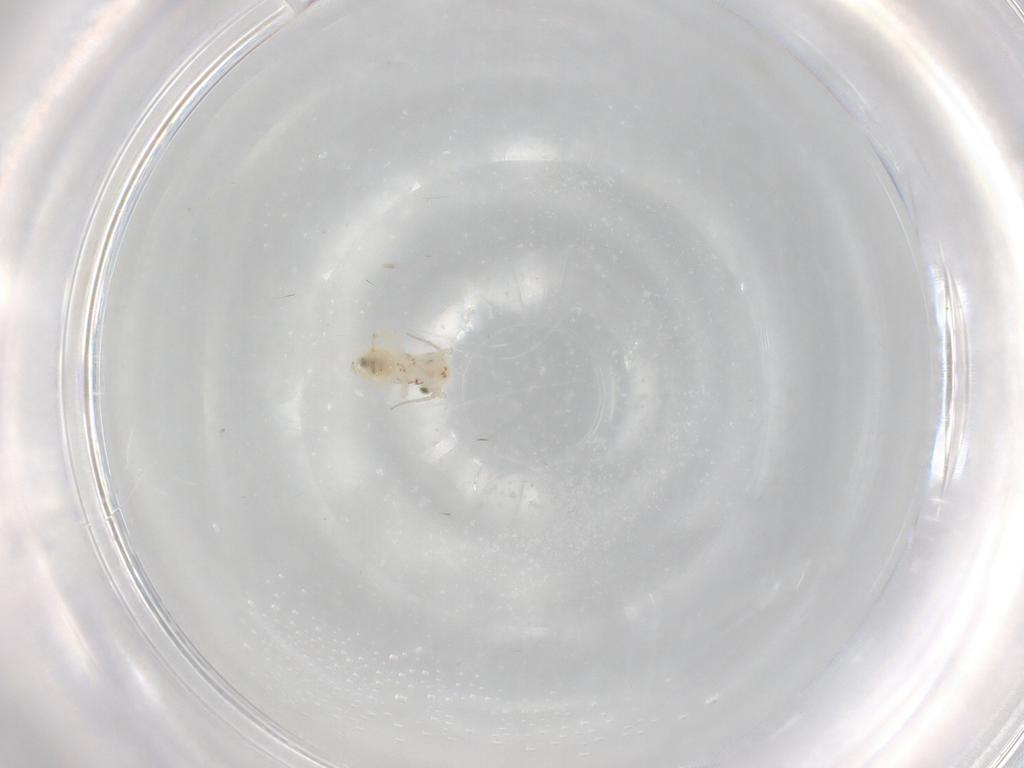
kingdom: Animalia
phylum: Arthropoda
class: Insecta
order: Psocodea
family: Lepidopsocidae
